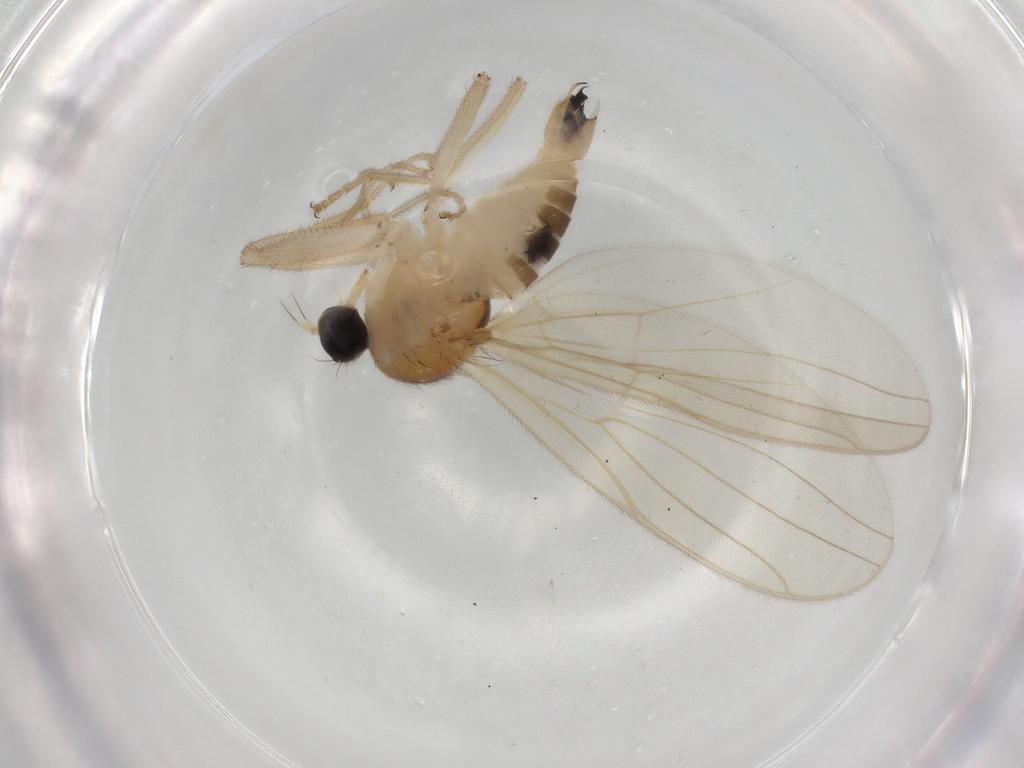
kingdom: Animalia
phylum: Arthropoda
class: Insecta
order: Diptera
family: Hybotidae
